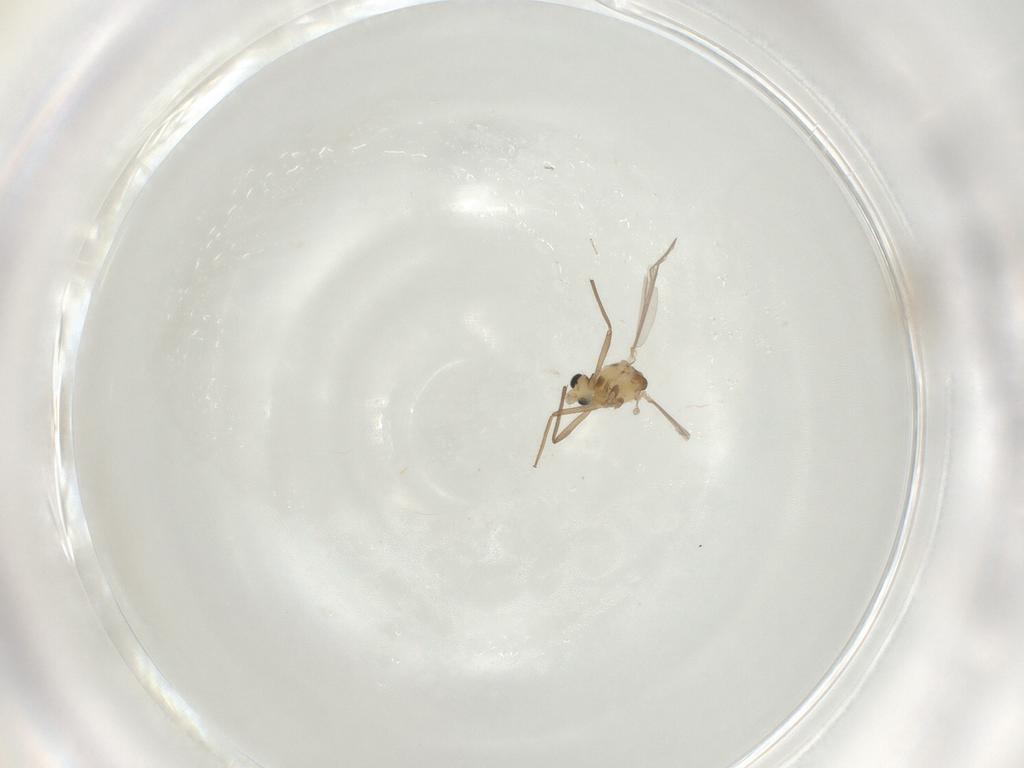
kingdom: Animalia
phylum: Arthropoda
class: Insecta
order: Diptera
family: Cecidomyiidae
